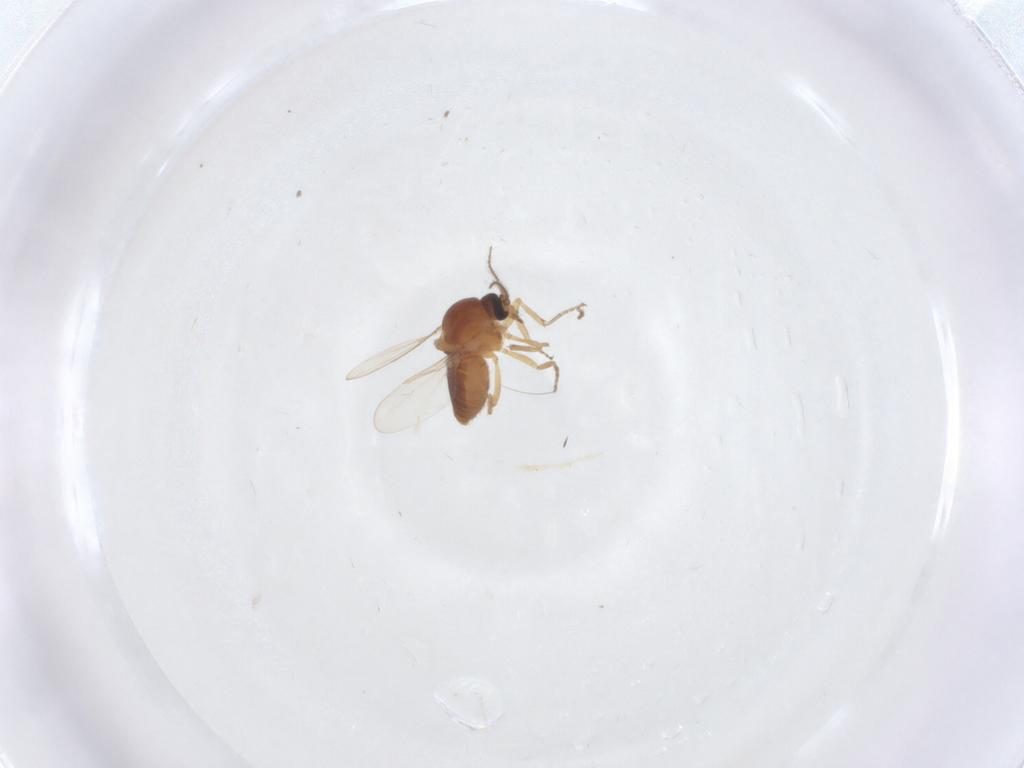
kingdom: Animalia
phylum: Arthropoda
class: Insecta
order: Diptera
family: Ceratopogonidae
